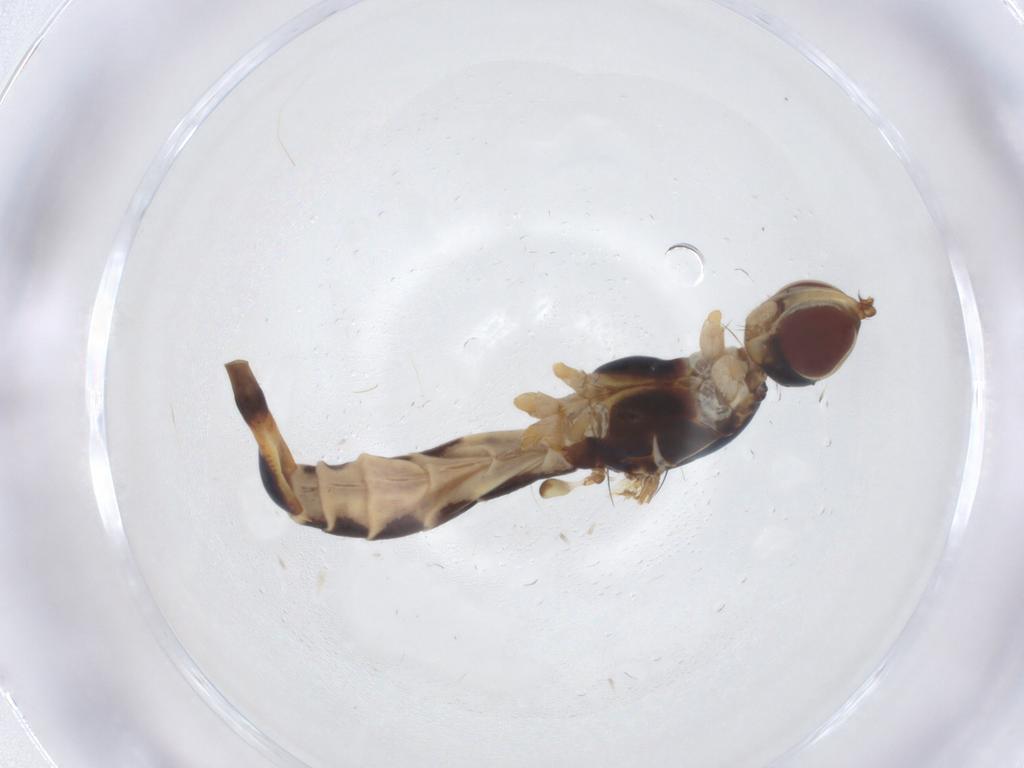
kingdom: Animalia
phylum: Arthropoda
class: Insecta
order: Diptera
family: Micropezidae
